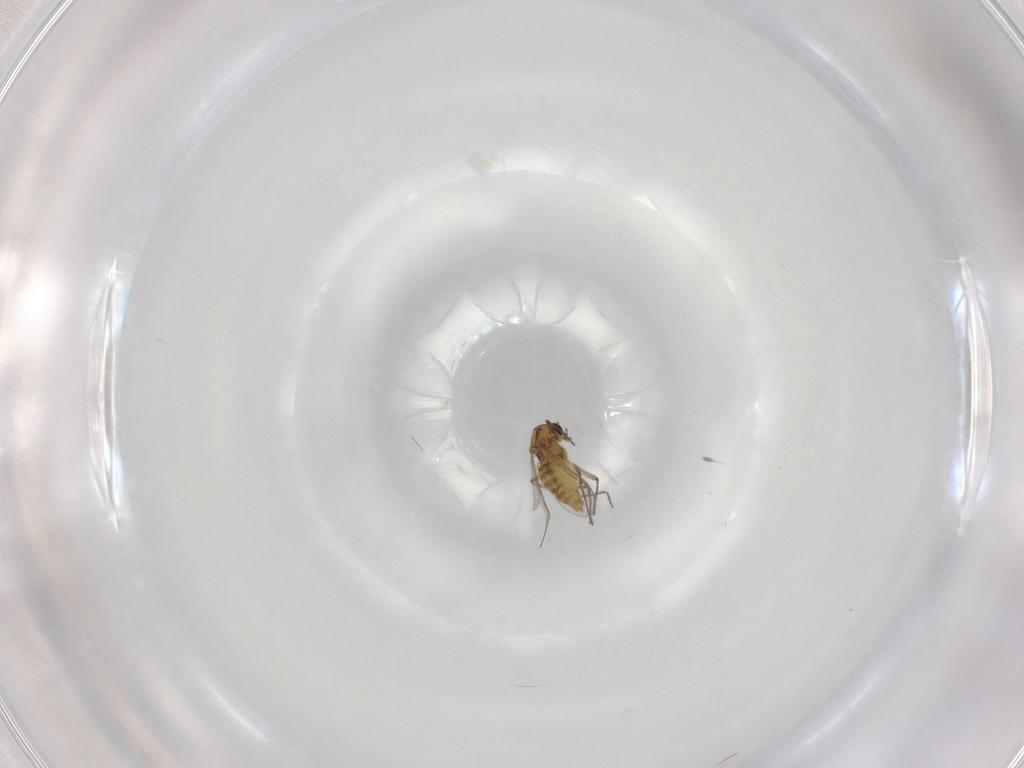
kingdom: Animalia
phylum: Arthropoda
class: Insecta
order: Diptera
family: Chironomidae
